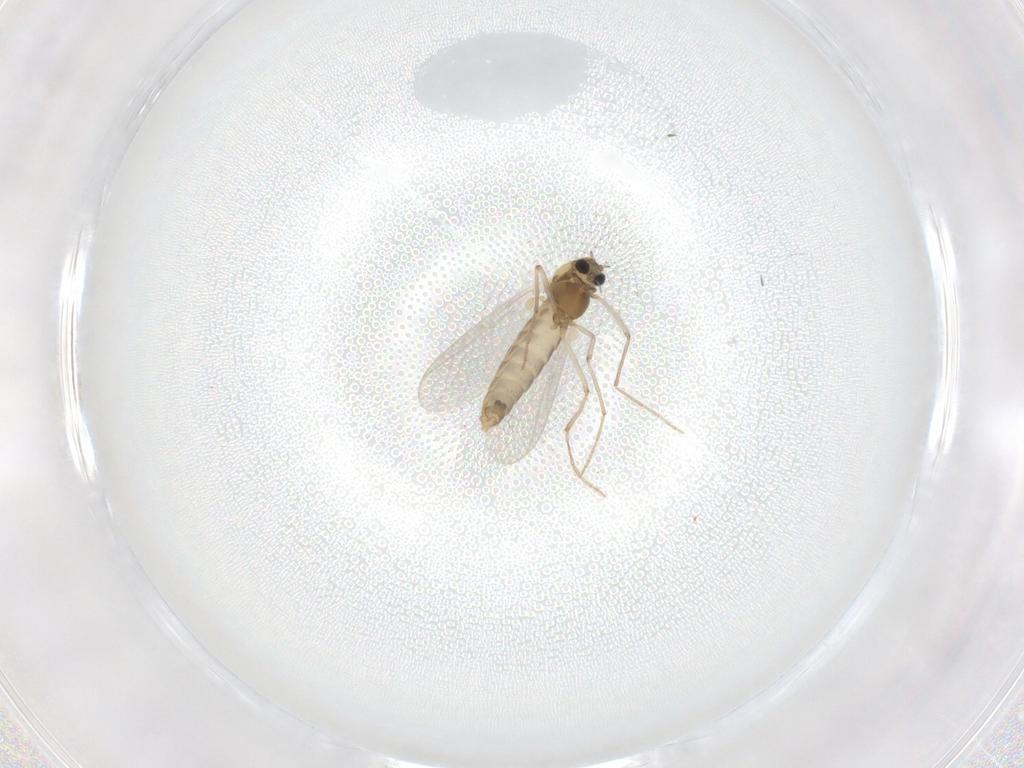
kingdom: Animalia
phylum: Arthropoda
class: Insecta
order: Diptera
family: Chironomidae
